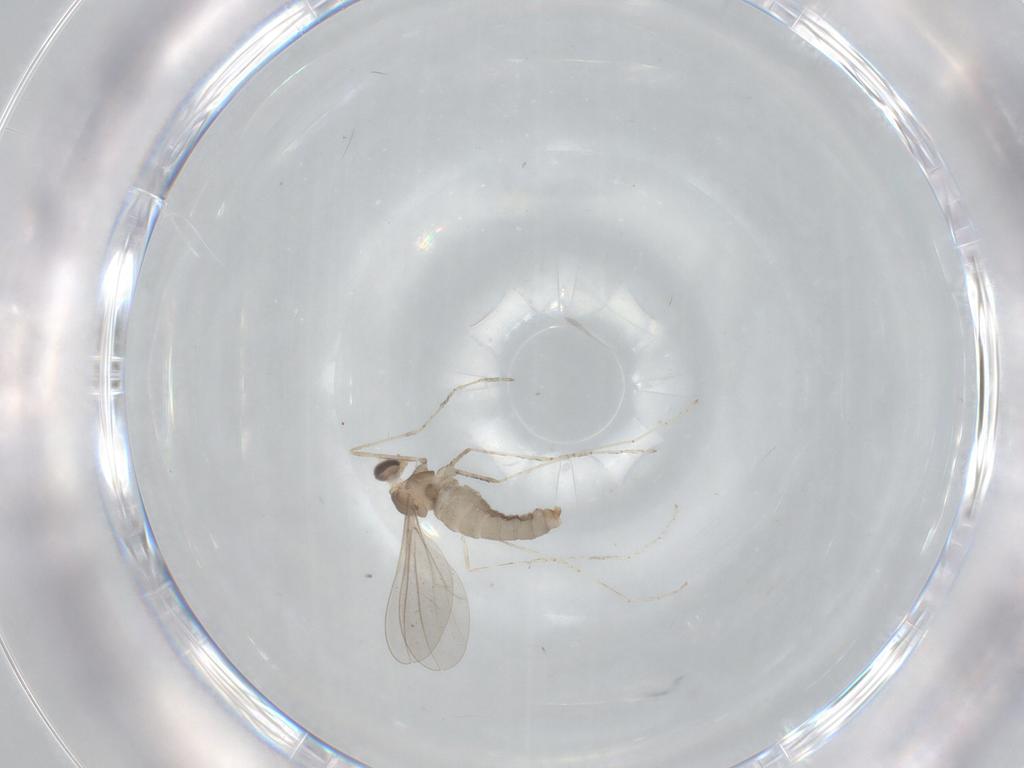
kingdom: Animalia
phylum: Arthropoda
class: Insecta
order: Diptera
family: Cecidomyiidae
